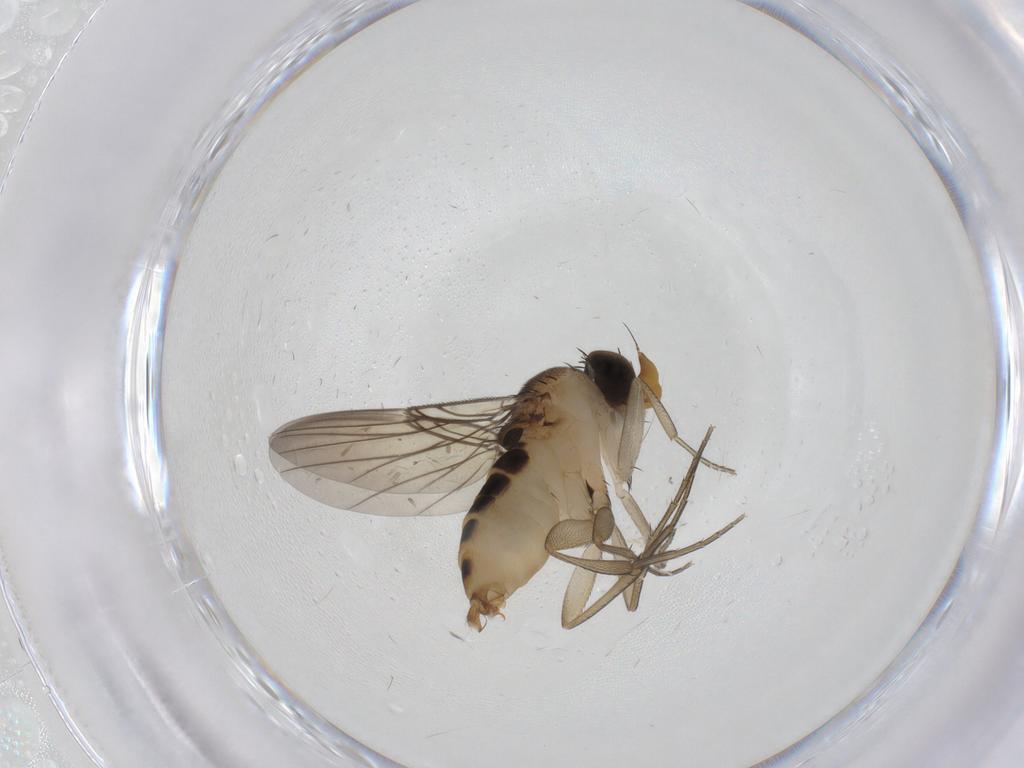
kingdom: Animalia
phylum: Arthropoda
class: Insecta
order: Diptera
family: Phoridae
